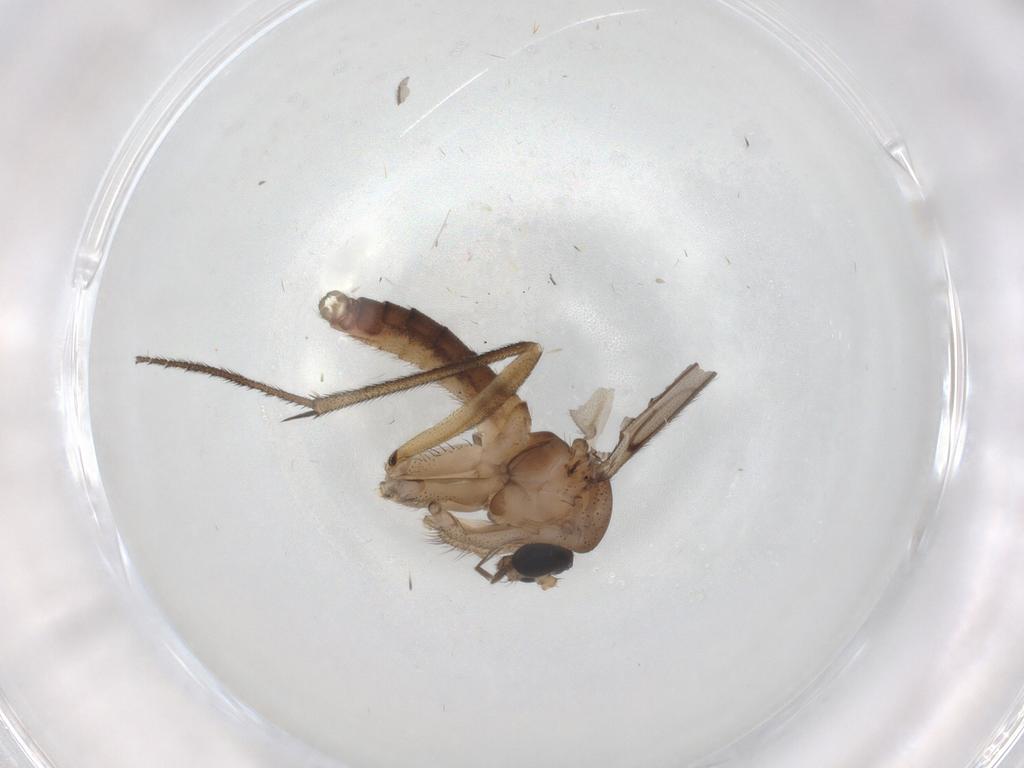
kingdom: Animalia
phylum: Arthropoda
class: Insecta
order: Diptera
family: Phoridae
